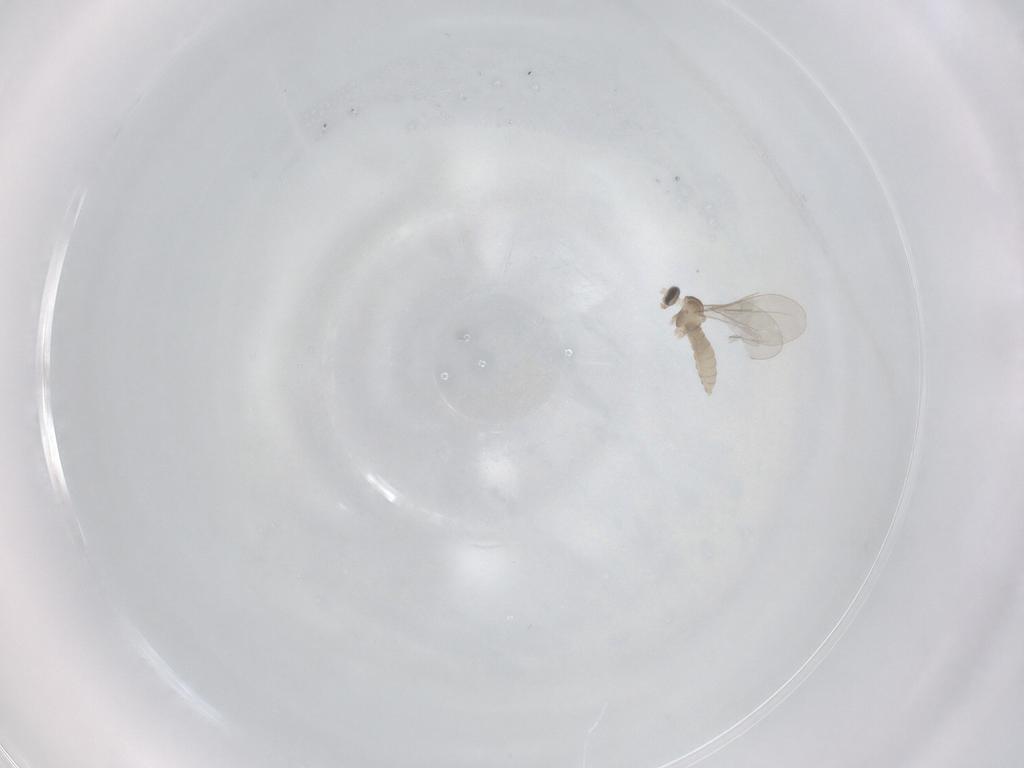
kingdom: Animalia
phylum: Arthropoda
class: Insecta
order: Diptera
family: Cecidomyiidae
